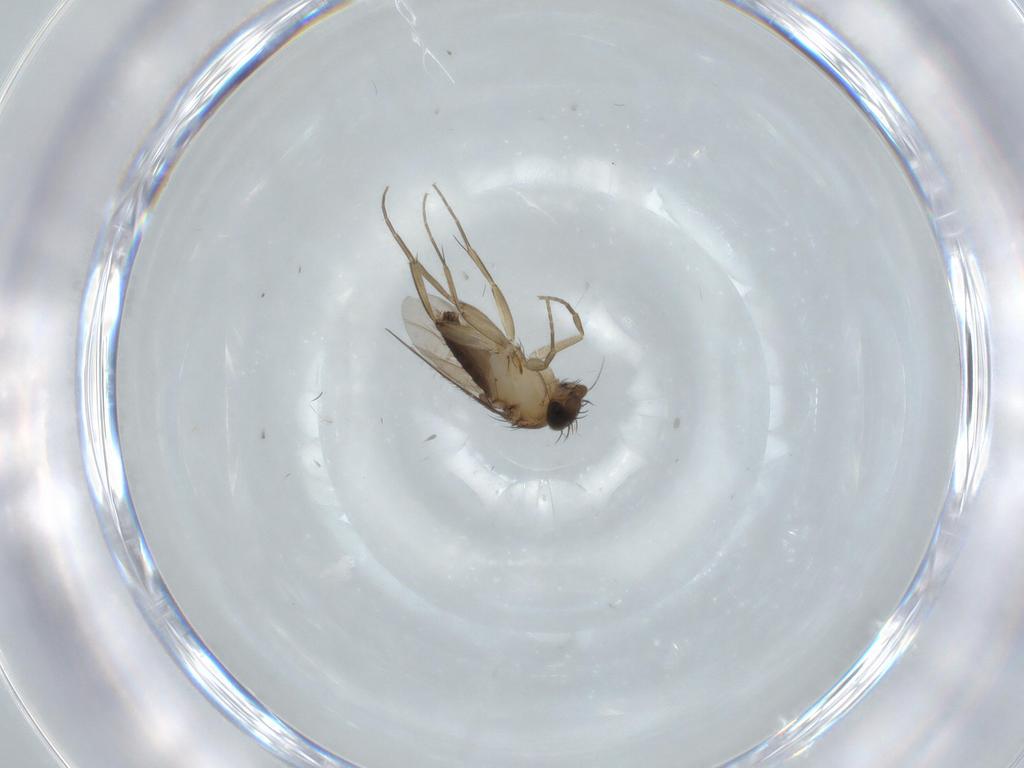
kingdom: Animalia
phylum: Arthropoda
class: Insecta
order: Diptera
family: Phoridae
